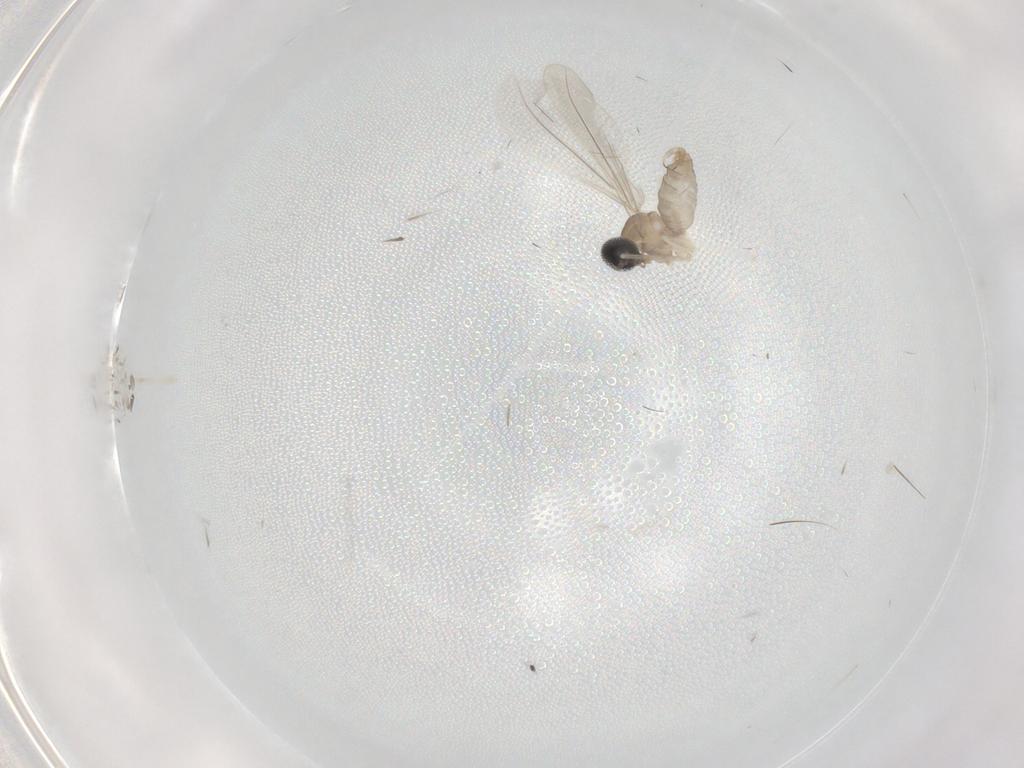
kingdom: Animalia
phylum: Arthropoda
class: Insecta
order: Diptera
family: Cecidomyiidae
